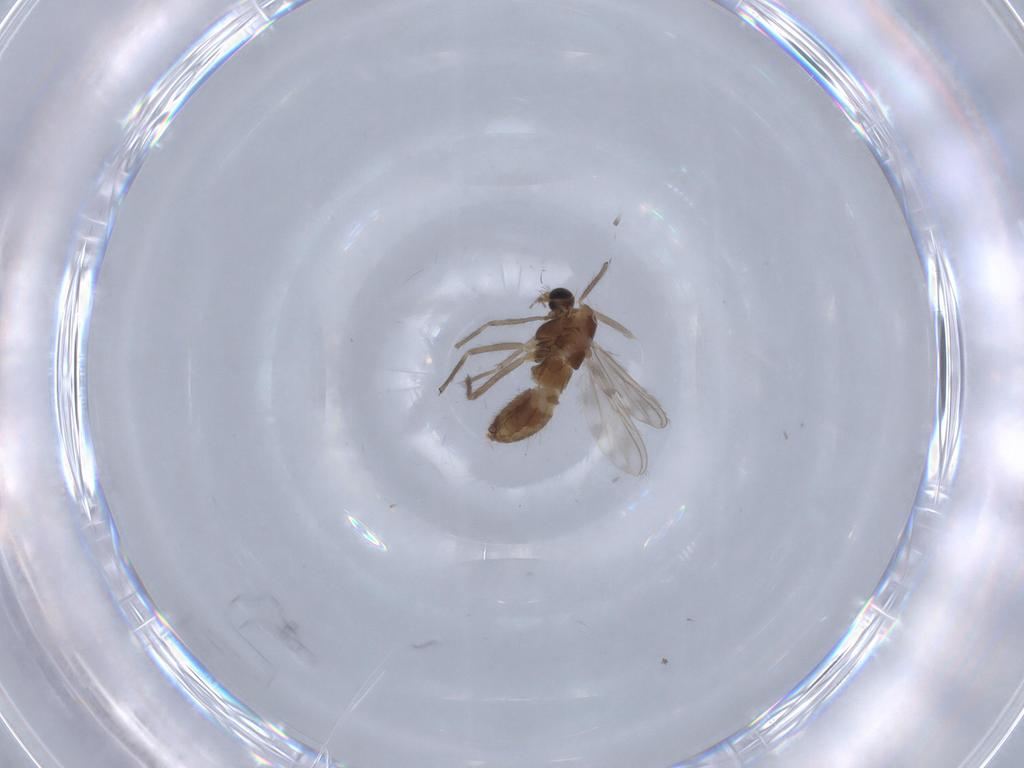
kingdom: Animalia
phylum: Arthropoda
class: Insecta
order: Diptera
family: Chironomidae
